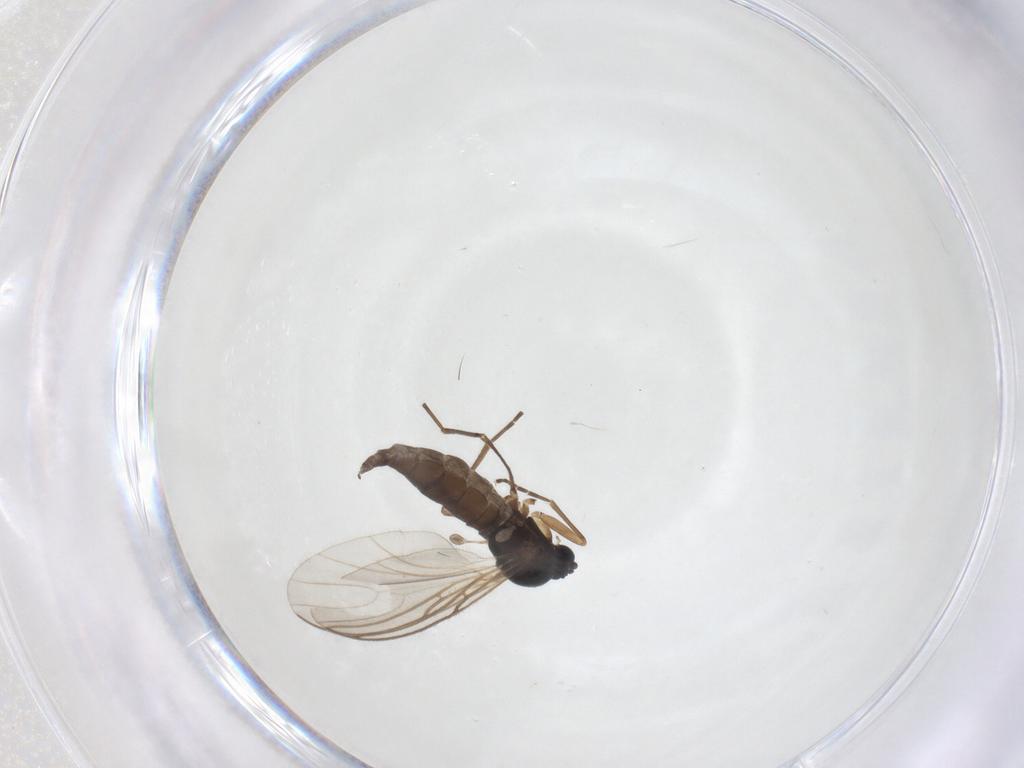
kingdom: Animalia
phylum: Arthropoda
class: Insecta
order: Diptera
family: Sciaridae
